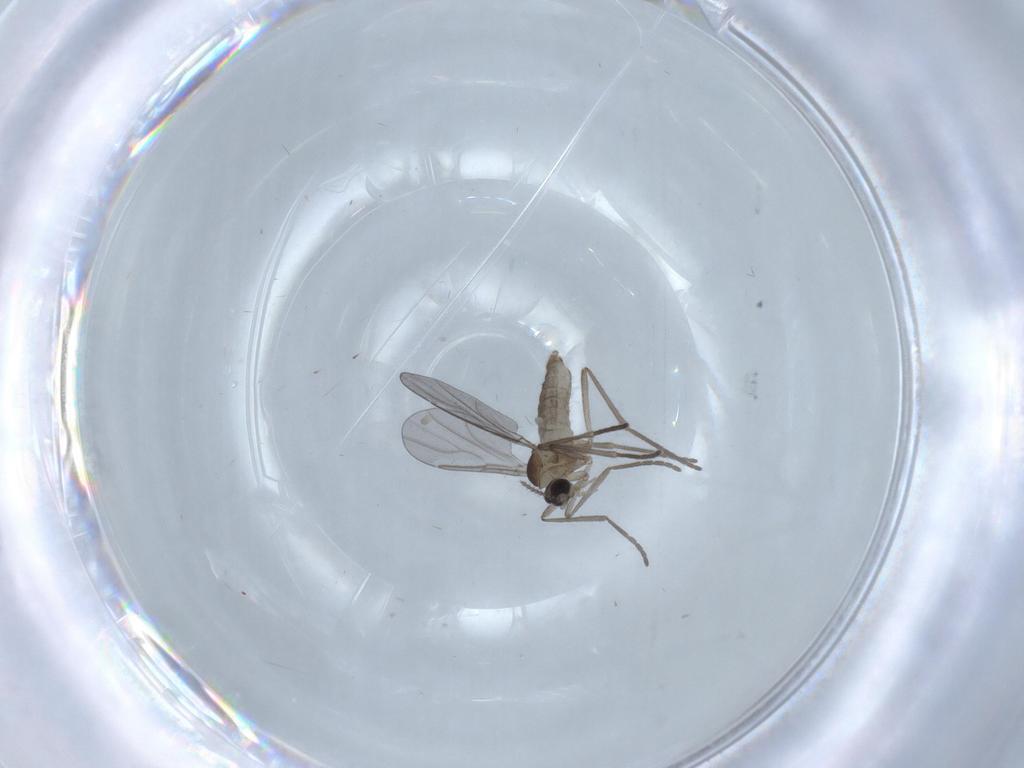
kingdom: Animalia
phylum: Arthropoda
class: Insecta
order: Diptera
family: Cecidomyiidae
